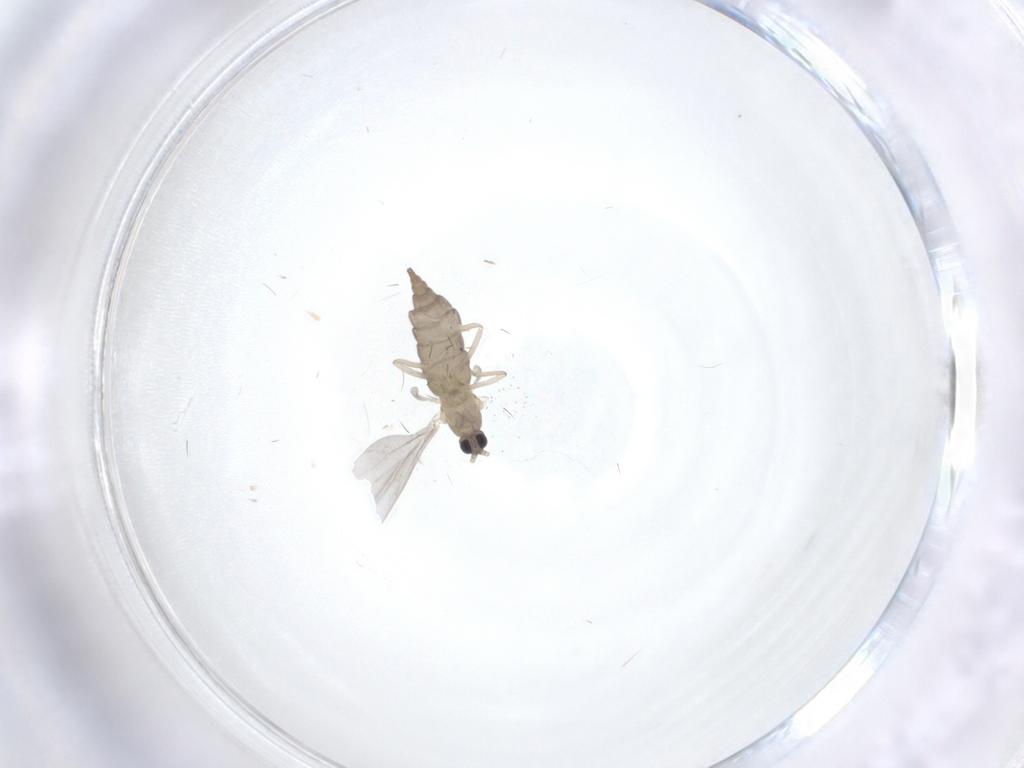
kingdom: Animalia
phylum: Arthropoda
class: Insecta
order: Diptera
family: Cecidomyiidae
